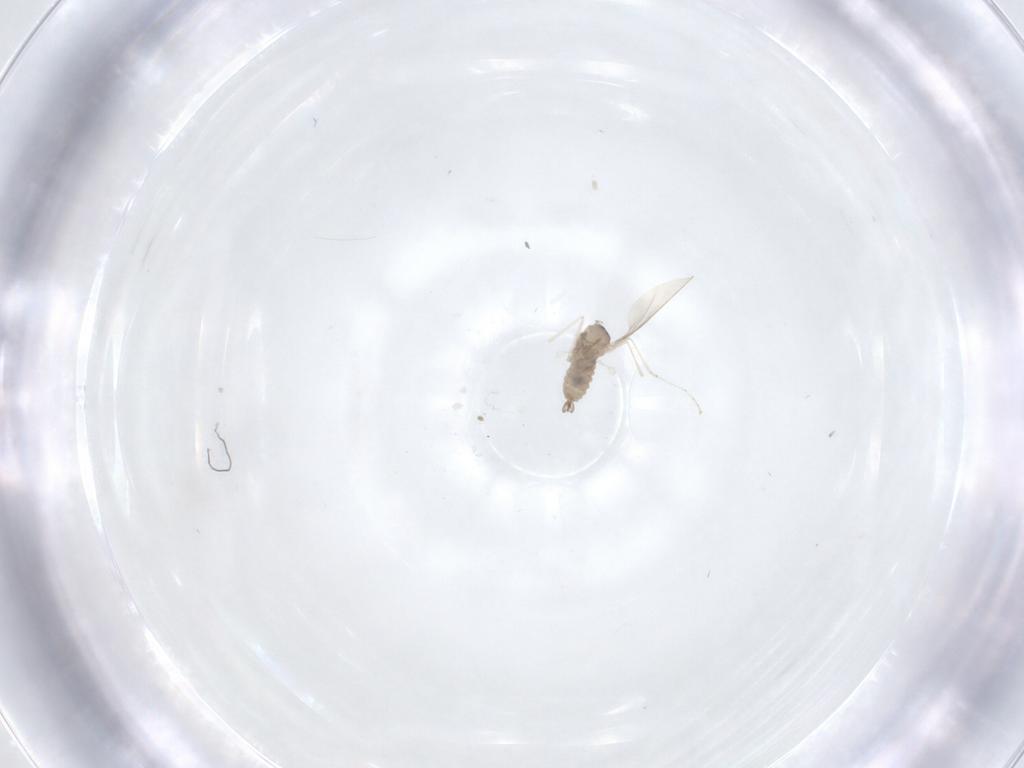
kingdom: Animalia
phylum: Arthropoda
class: Insecta
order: Diptera
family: Cecidomyiidae
